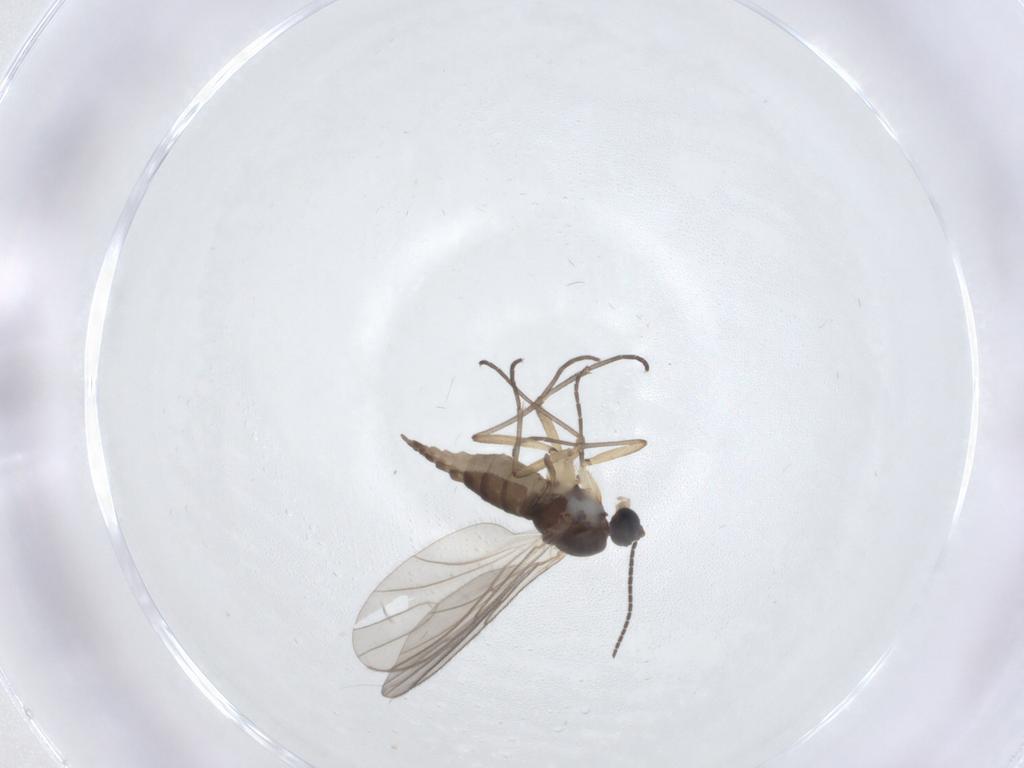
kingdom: Animalia
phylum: Arthropoda
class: Insecta
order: Diptera
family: Sciaridae
